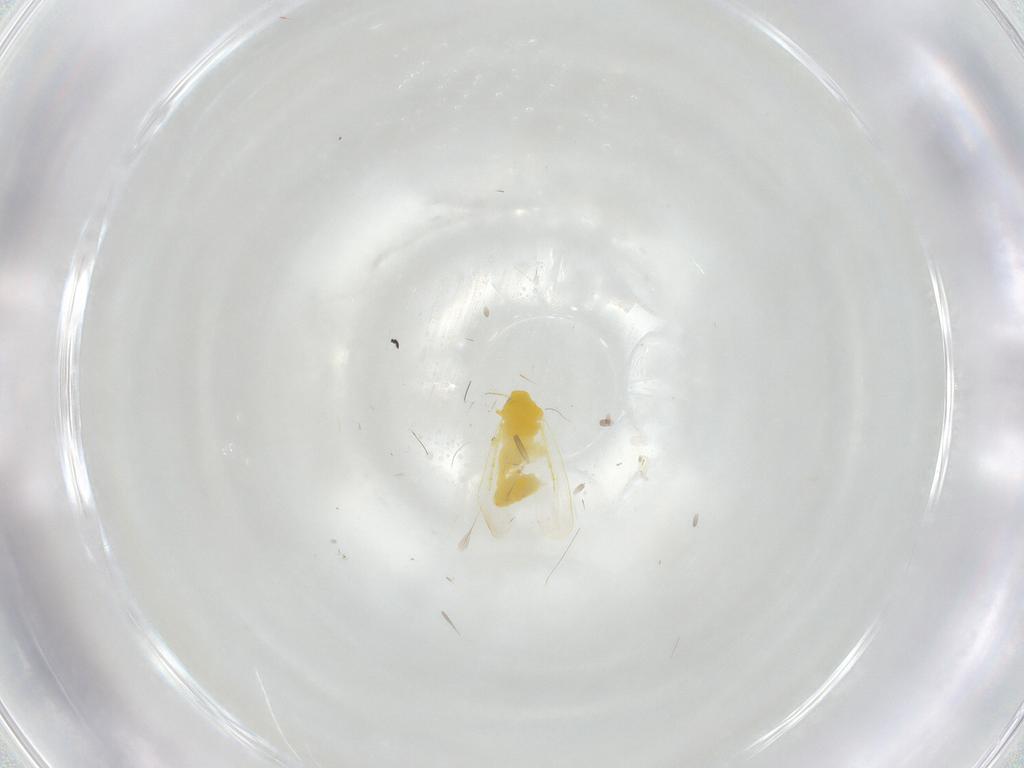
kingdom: Animalia
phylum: Arthropoda
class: Insecta
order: Hemiptera
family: Aleyrodidae
